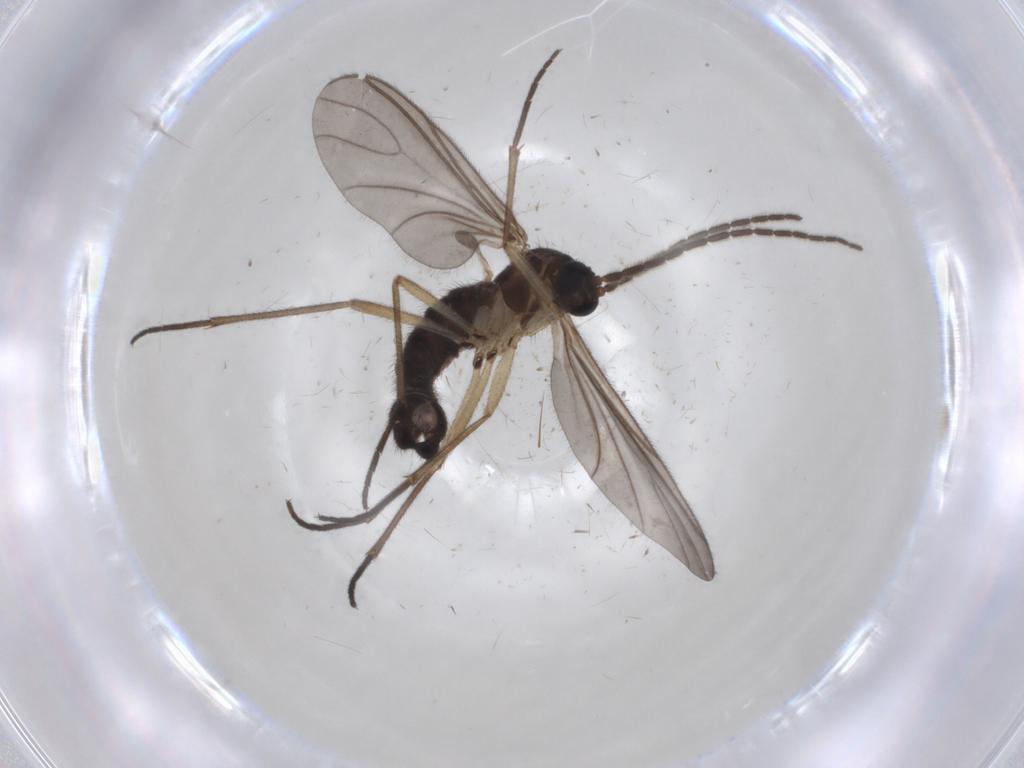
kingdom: Animalia
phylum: Arthropoda
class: Insecta
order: Diptera
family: Sciaridae
